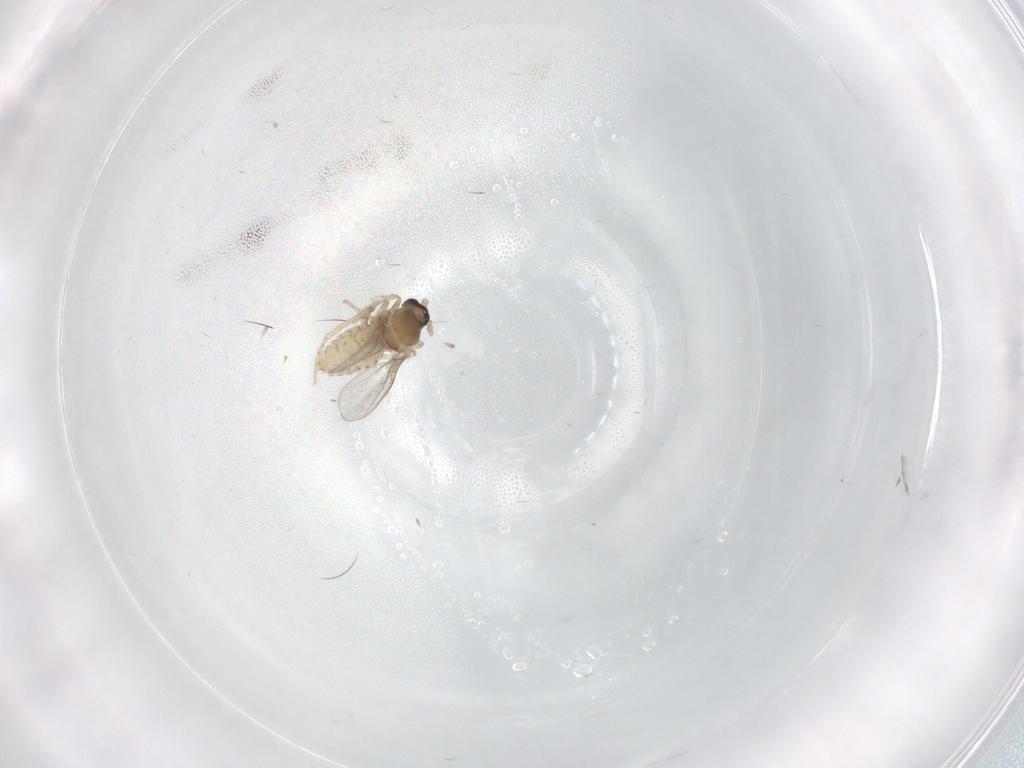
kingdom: Animalia
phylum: Arthropoda
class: Insecta
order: Diptera
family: Cecidomyiidae
